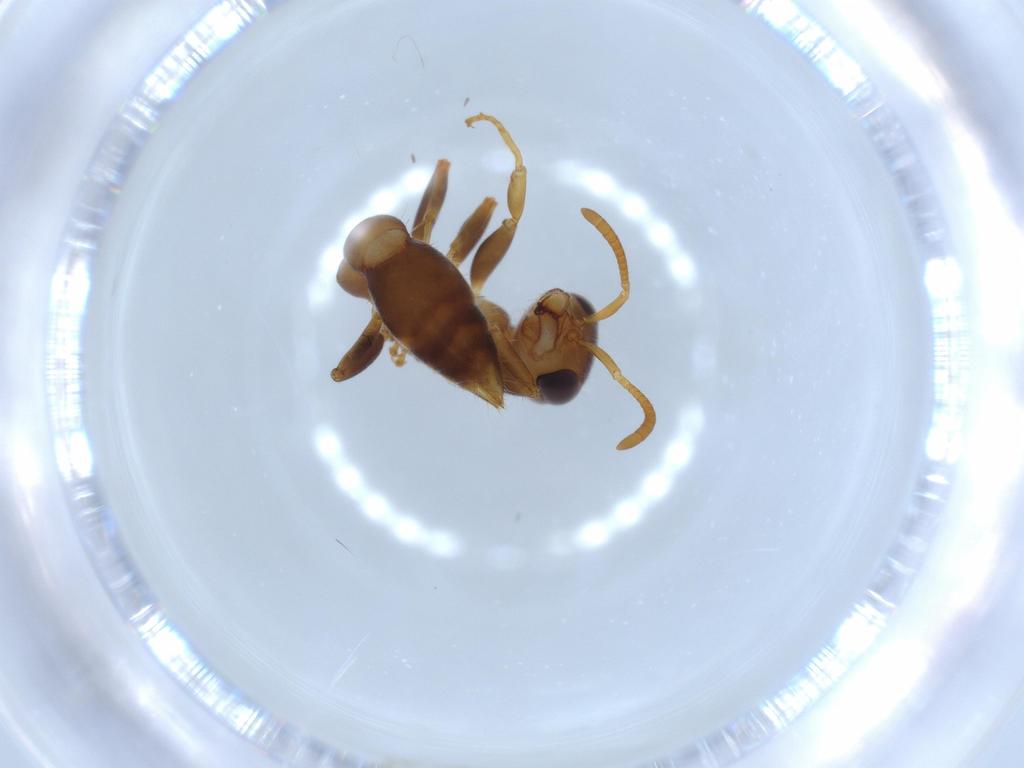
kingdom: Animalia
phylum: Arthropoda
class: Insecta
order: Hymenoptera
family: Formicidae
